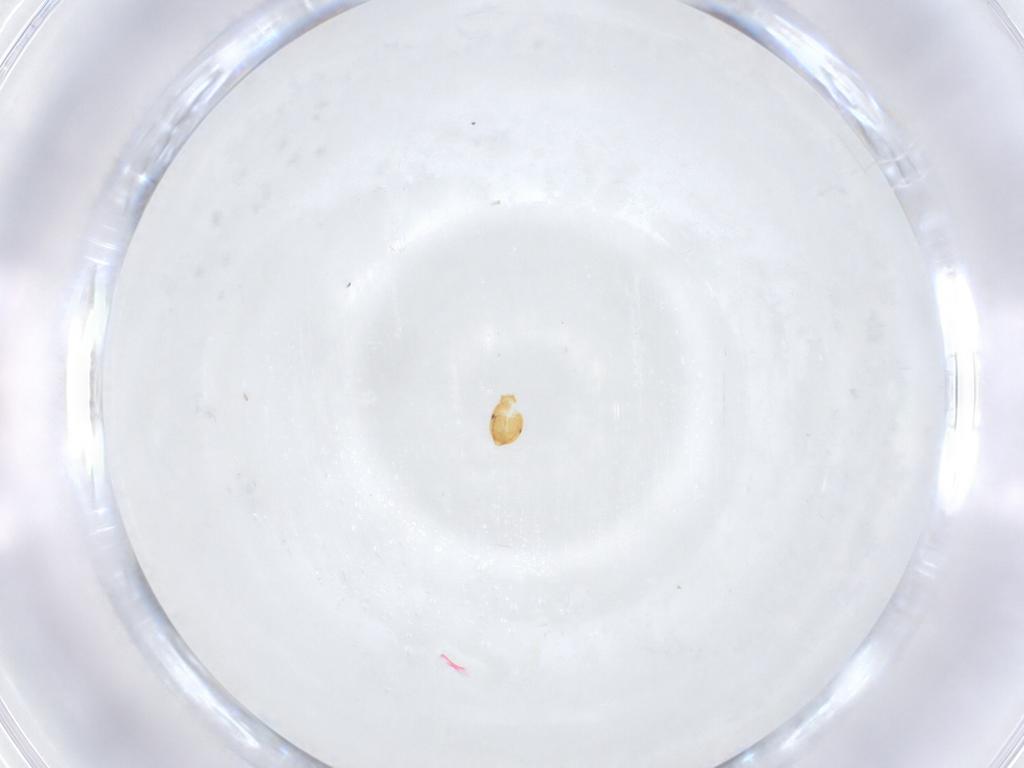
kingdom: Animalia
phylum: Arthropoda
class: Insecta
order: Hymenoptera
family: Scelionidae
